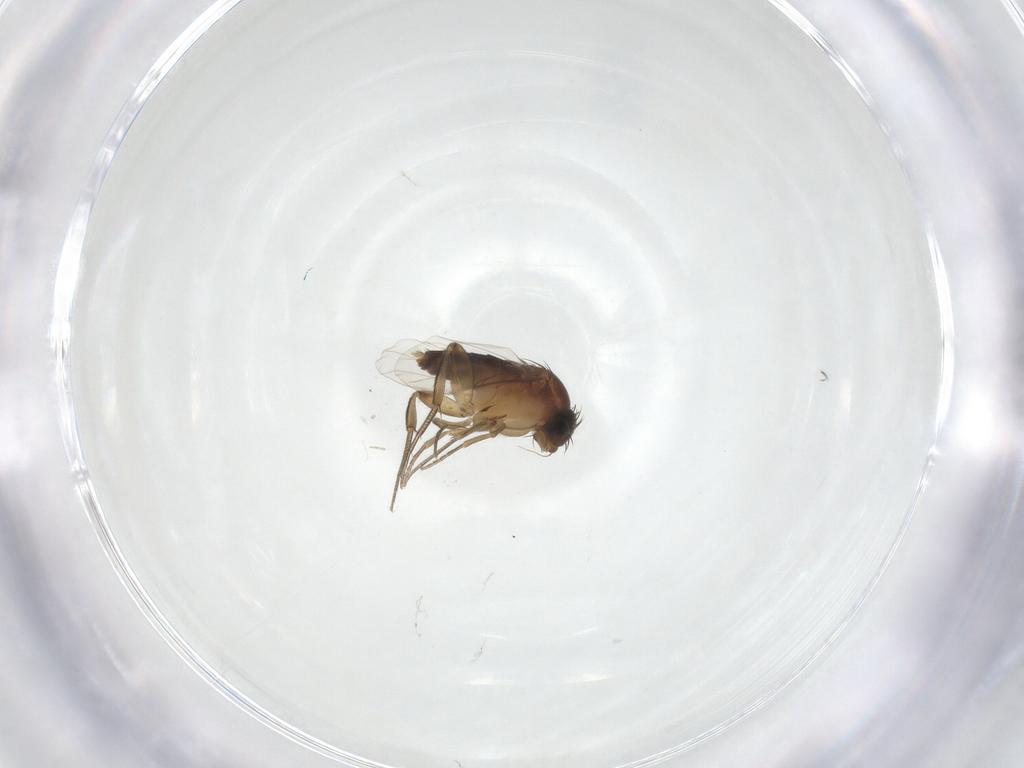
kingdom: Animalia
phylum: Arthropoda
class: Insecta
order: Diptera
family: Phoridae
